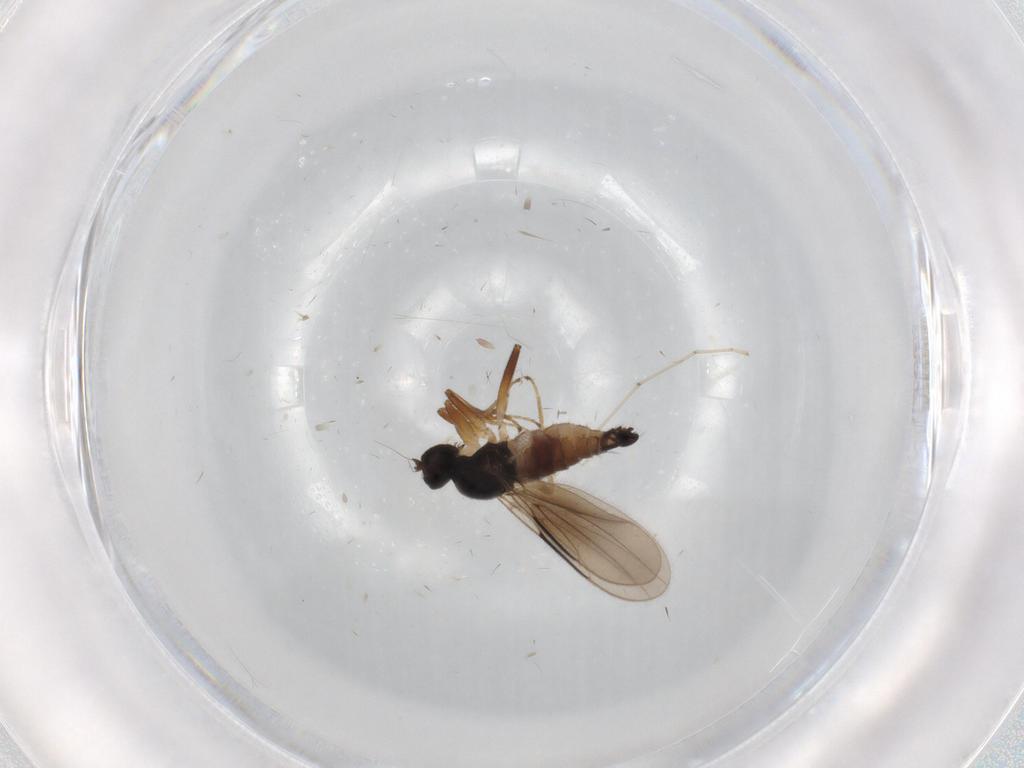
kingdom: Animalia
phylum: Arthropoda
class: Insecta
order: Diptera
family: Hybotidae
